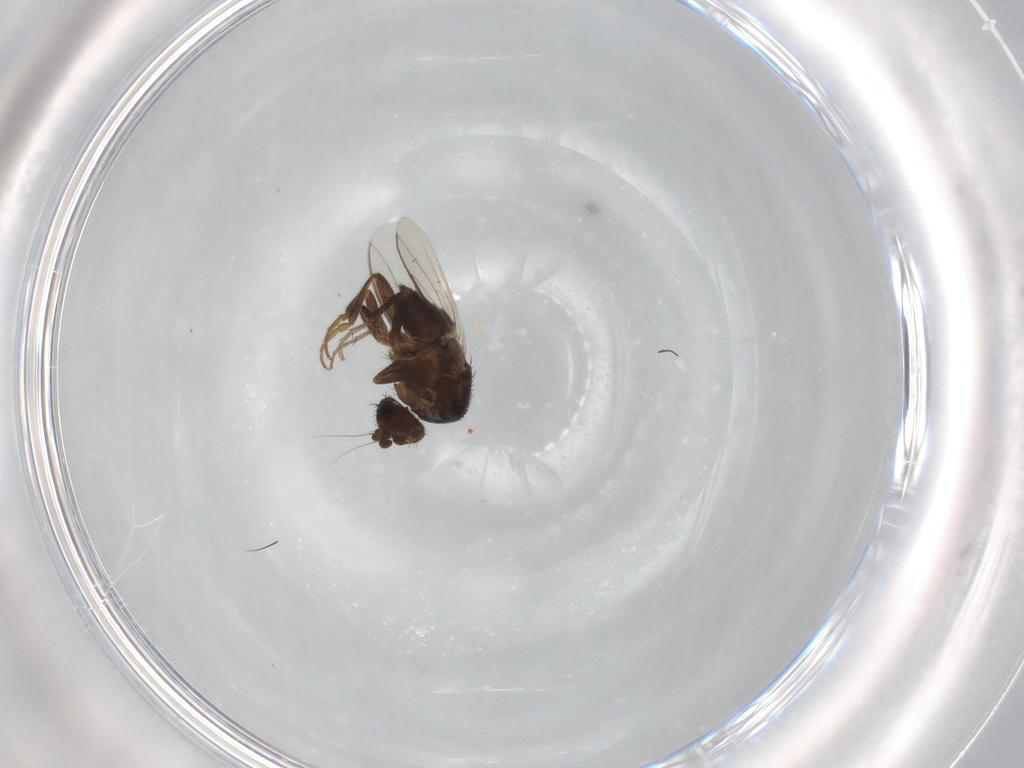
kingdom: Animalia
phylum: Arthropoda
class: Insecta
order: Diptera
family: Sphaeroceridae
